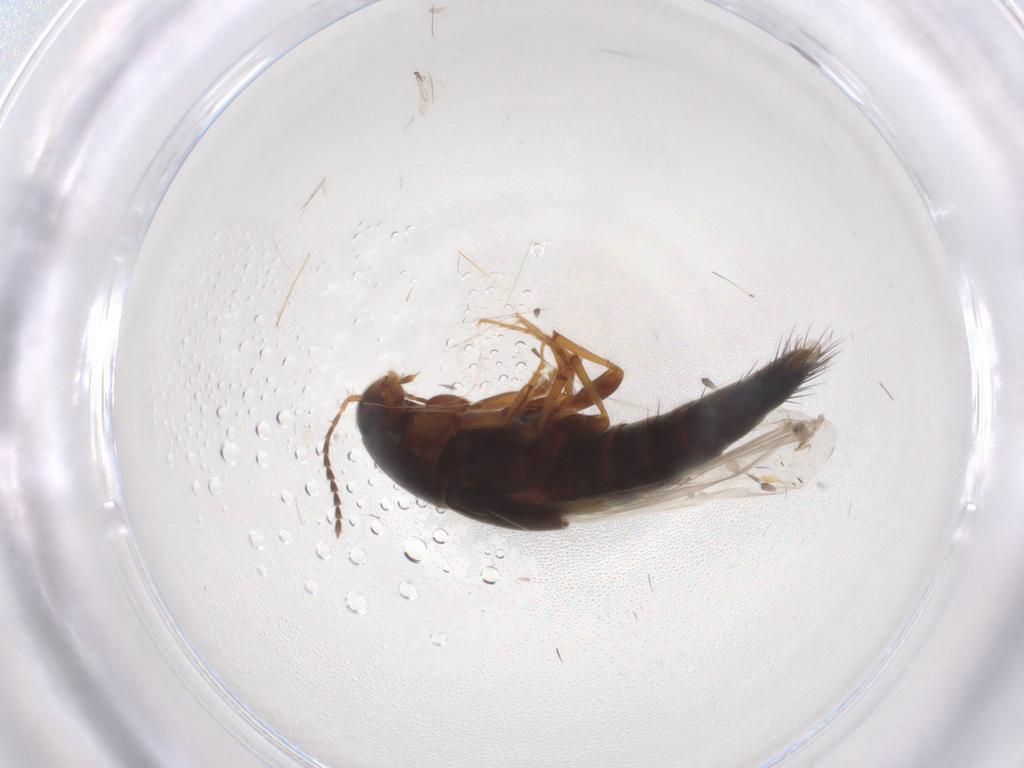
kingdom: Animalia
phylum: Arthropoda
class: Insecta
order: Coleoptera
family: Staphylinidae
